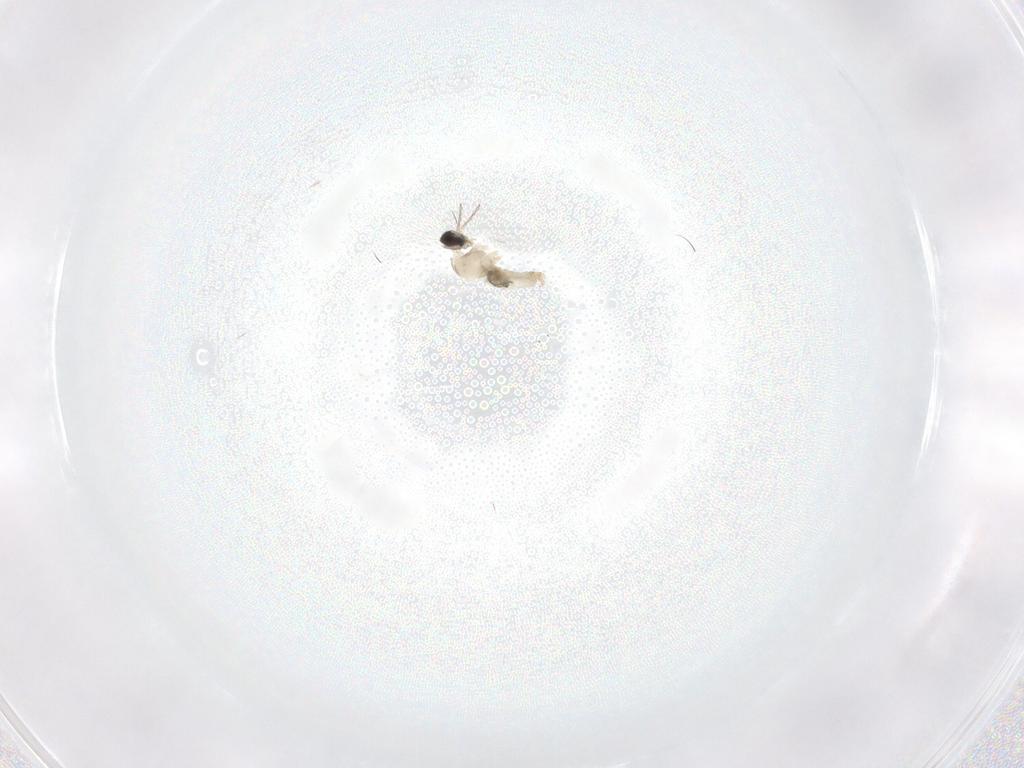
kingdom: Animalia
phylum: Arthropoda
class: Insecta
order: Diptera
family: Cecidomyiidae
